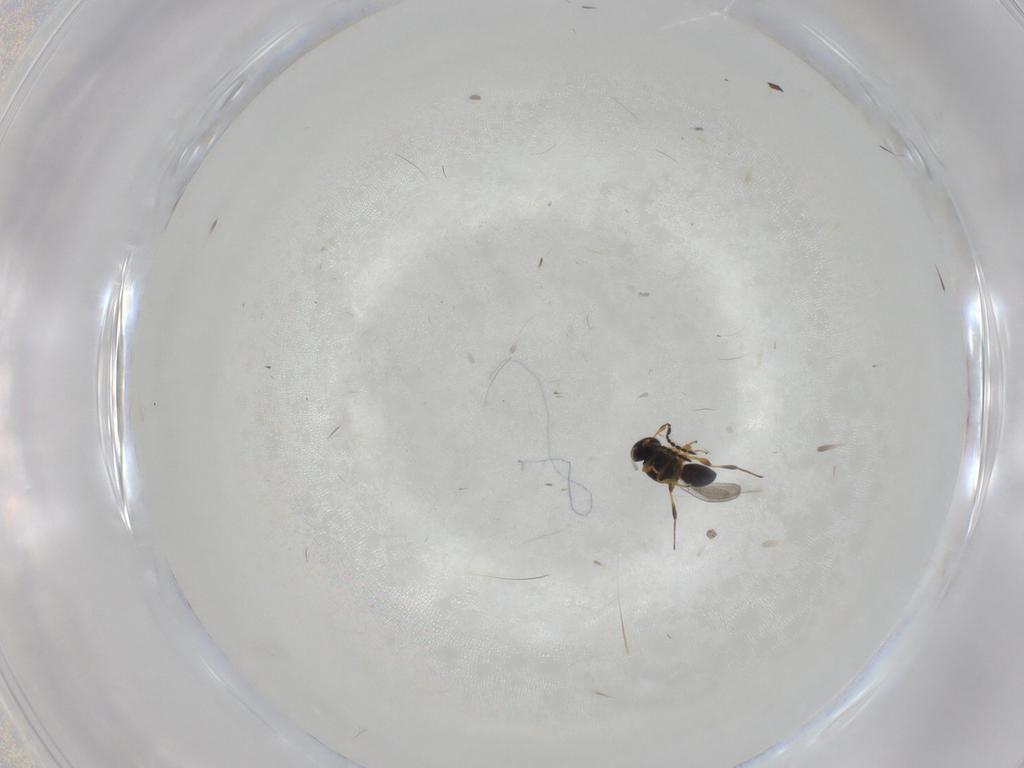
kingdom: Animalia
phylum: Arthropoda
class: Insecta
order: Hymenoptera
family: Platygastridae
